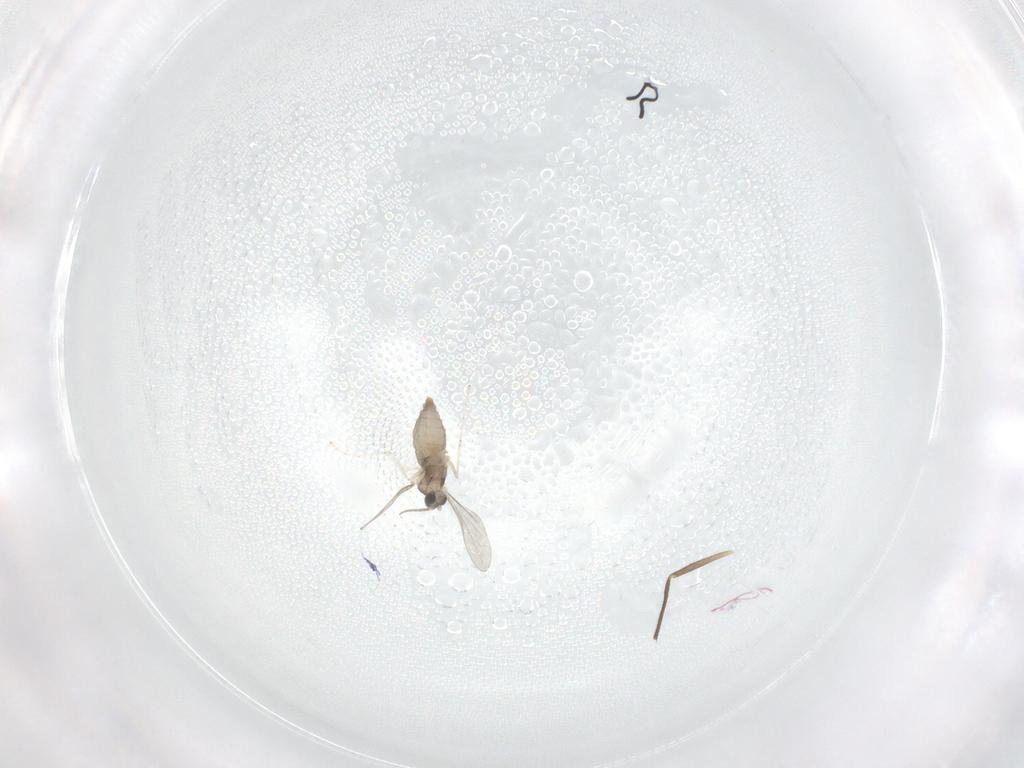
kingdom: Animalia
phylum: Arthropoda
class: Insecta
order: Diptera
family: Chironomidae
